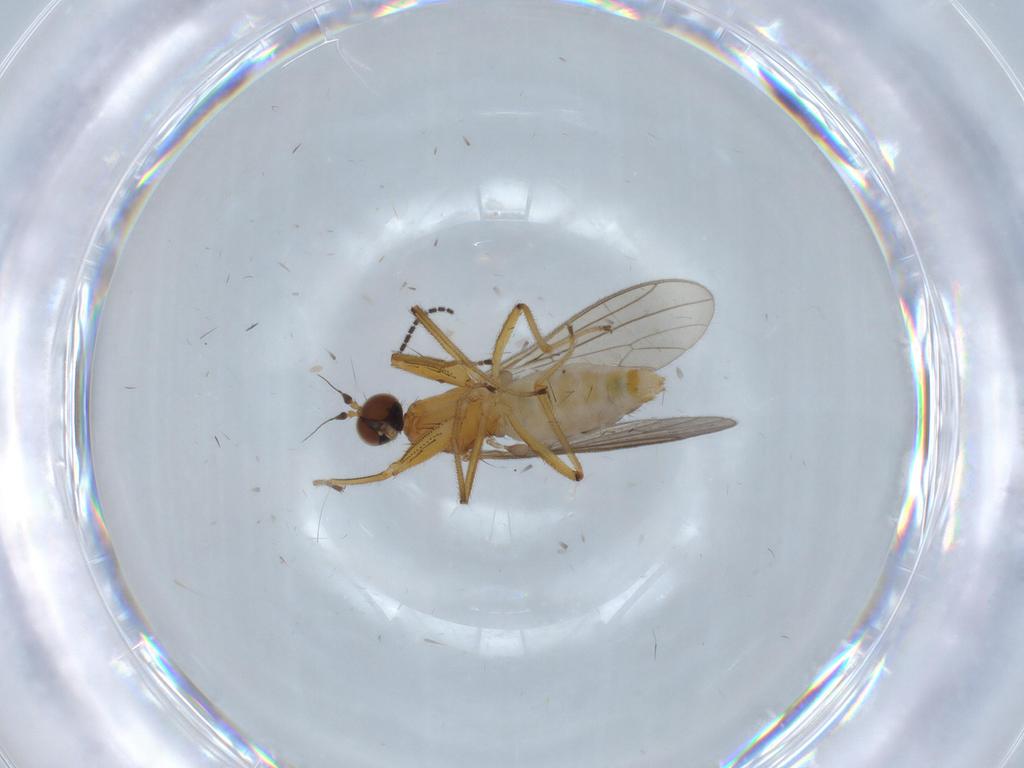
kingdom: Animalia
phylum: Arthropoda
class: Insecta
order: Diptera
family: Empididae
